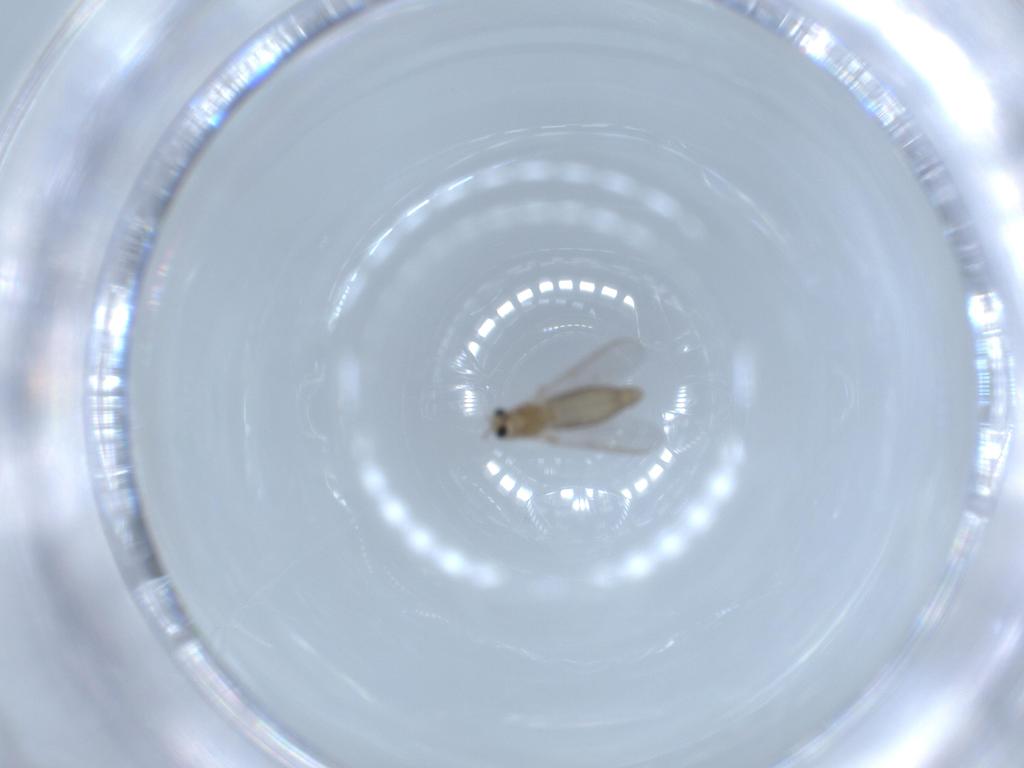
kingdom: Animalia
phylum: Arthropoda
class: Insecta
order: Diptera
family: Chironomidae
